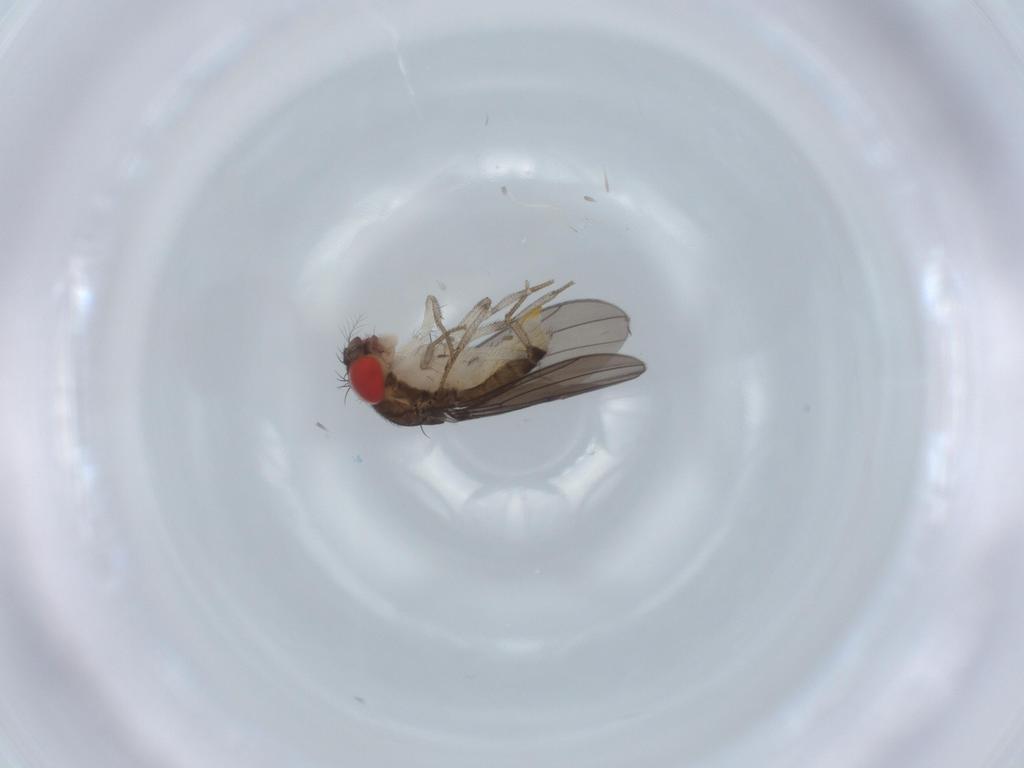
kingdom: Animalia
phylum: Arthropoda
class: Insecta
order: Diptera
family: Drosophilidae
